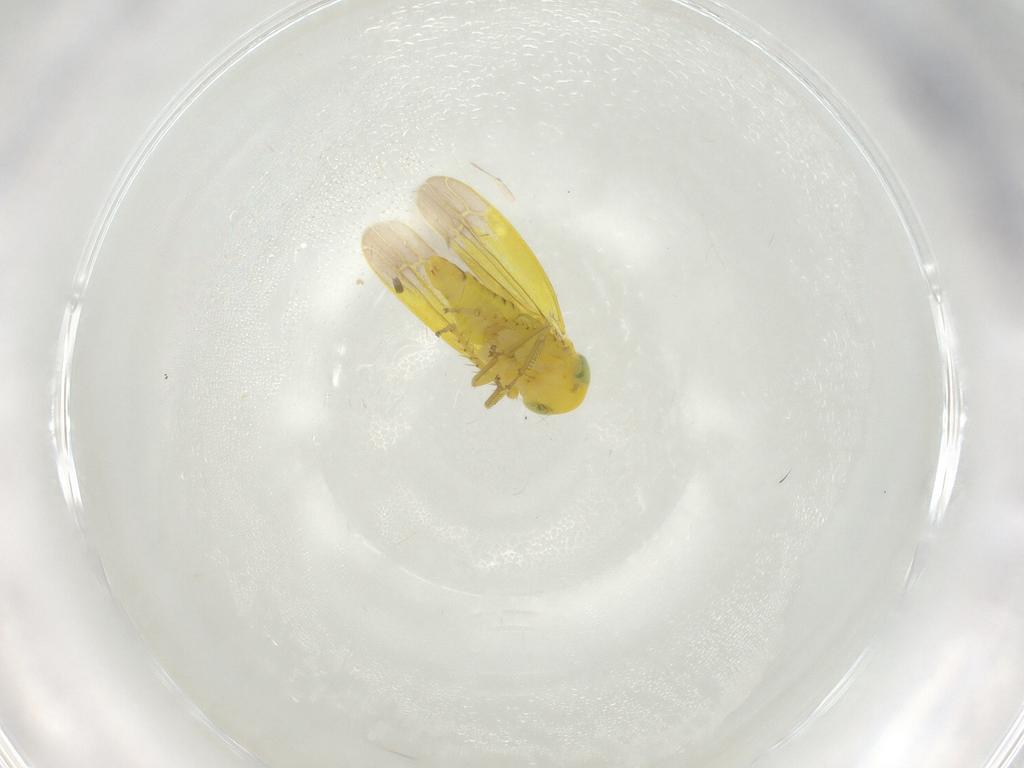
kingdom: Animalia
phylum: Arthropoda
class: Insecta
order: Hemiptera
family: Cicadellidae
